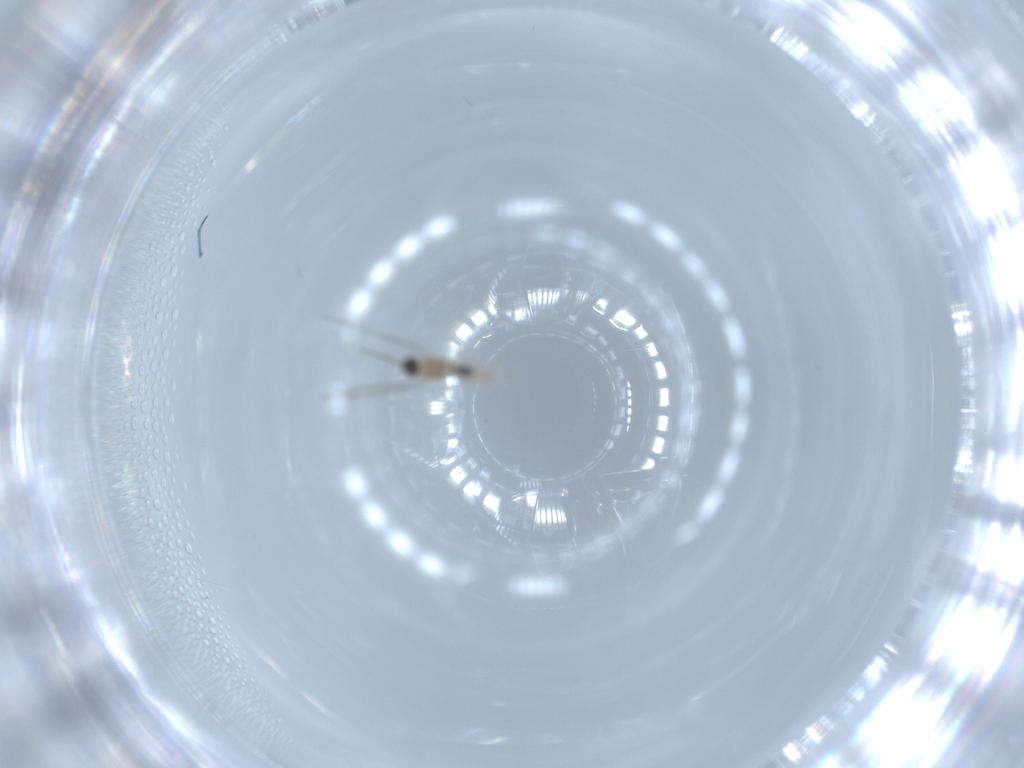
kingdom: Animalia
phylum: Arthropoda
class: Insecta
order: Diptera
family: Cecidomyiidae
